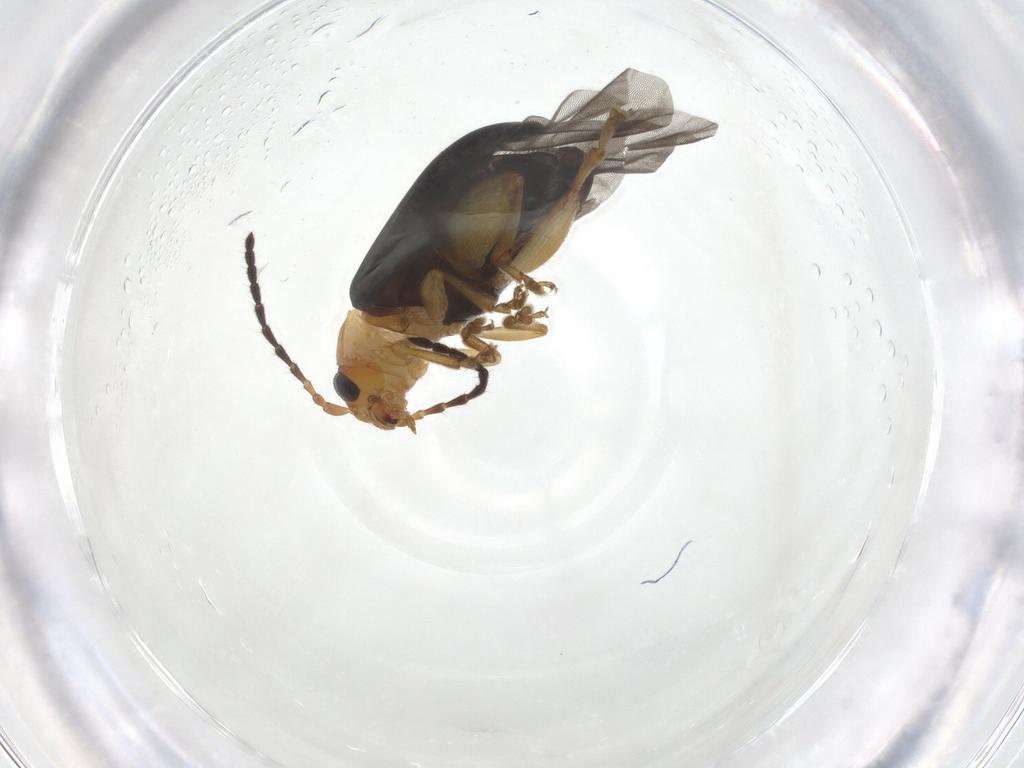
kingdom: Animalia
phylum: Arthropoda
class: Insecta
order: Coleoptera
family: Chrysomelidae
